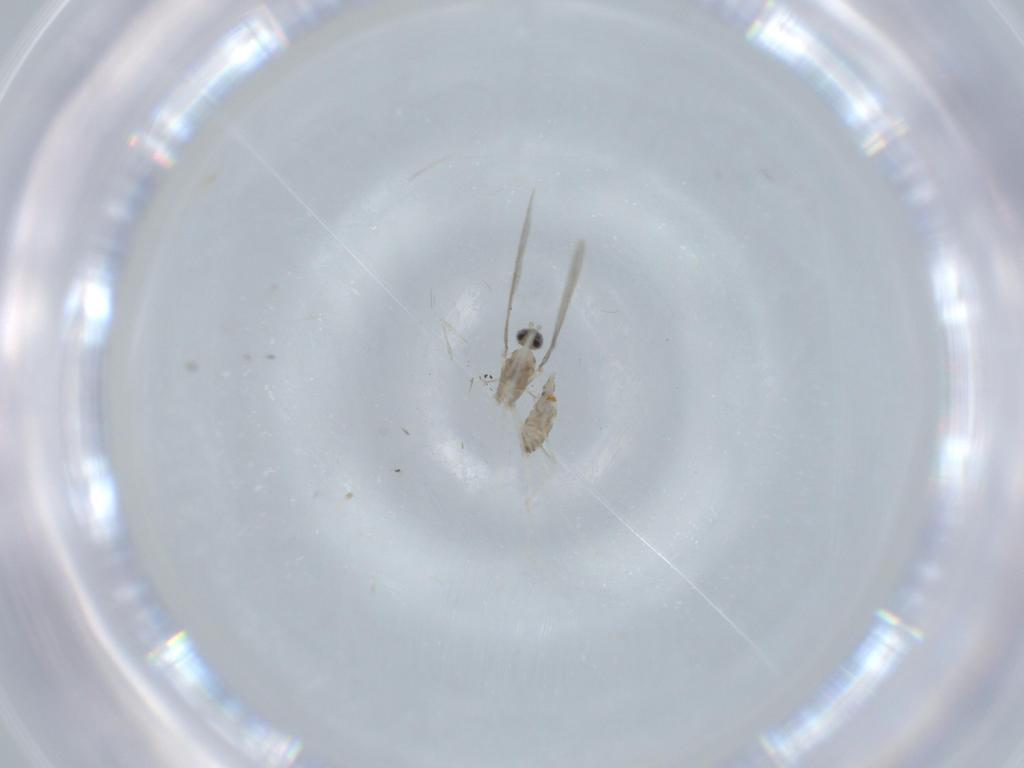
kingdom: Animalia
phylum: Arthropoda
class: Insecta
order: Diptera
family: Cecidomyiidae
